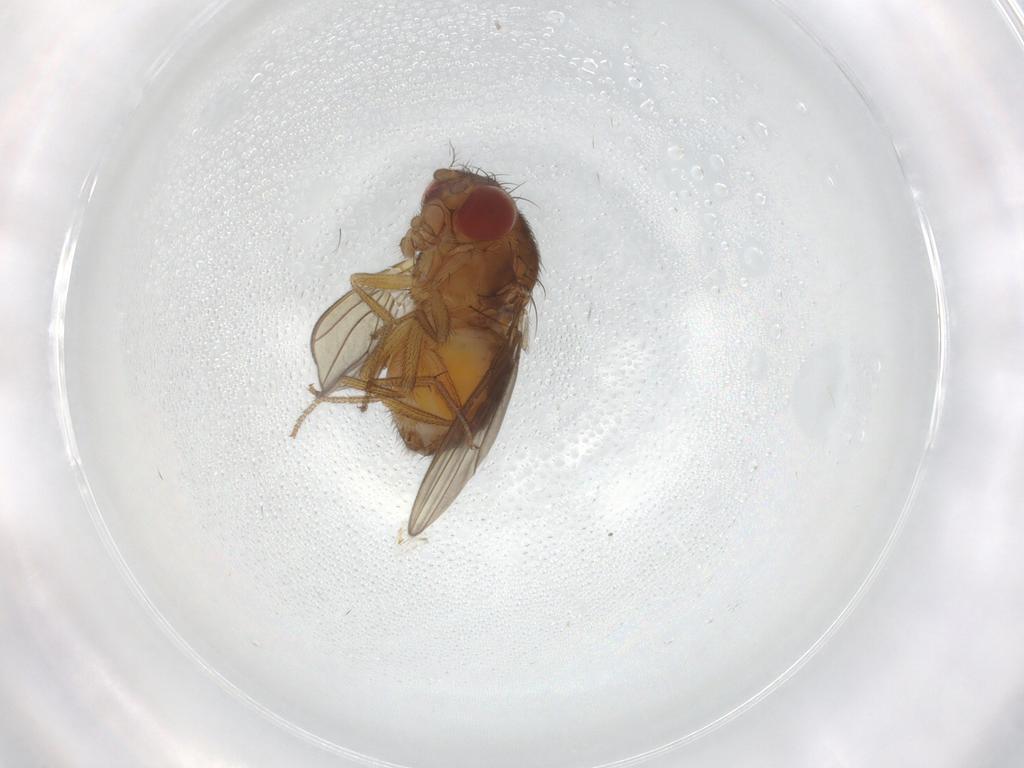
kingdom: Animalia
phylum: Arthropoda
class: Insecta
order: Diptera
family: Drosophilidae
